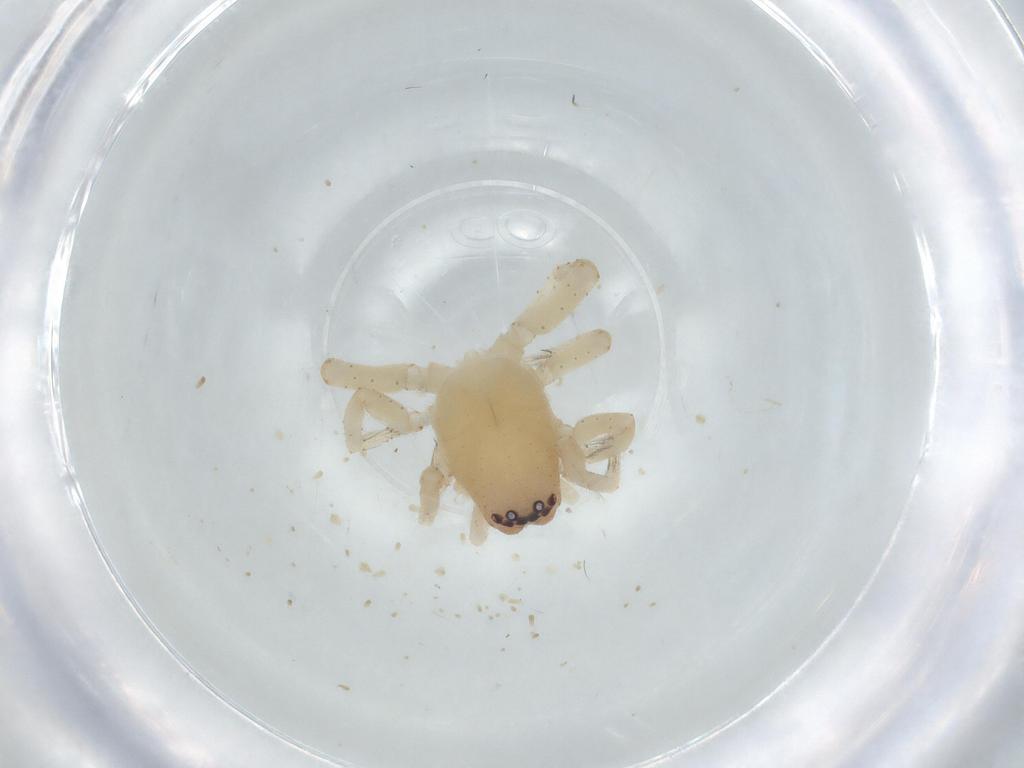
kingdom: Animalia
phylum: Arthropoda
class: Arachnida
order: Araneae
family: Clubionidae
